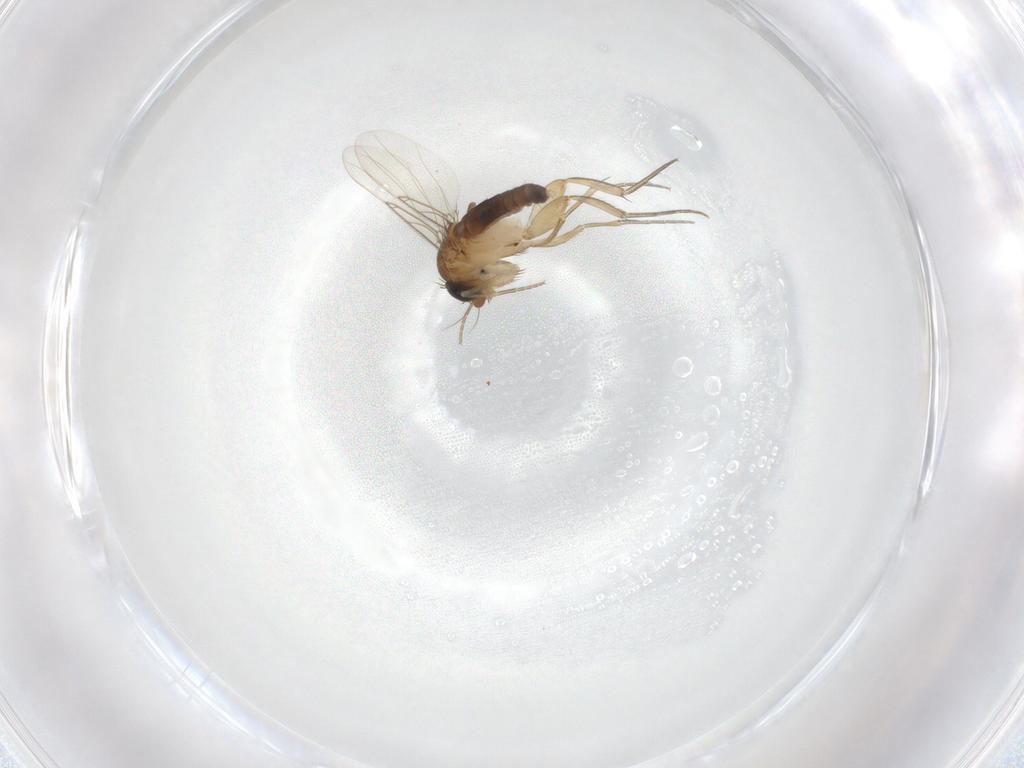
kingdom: Animalia
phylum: Arthropoda
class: Insecta
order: Diptera
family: Phoridae
